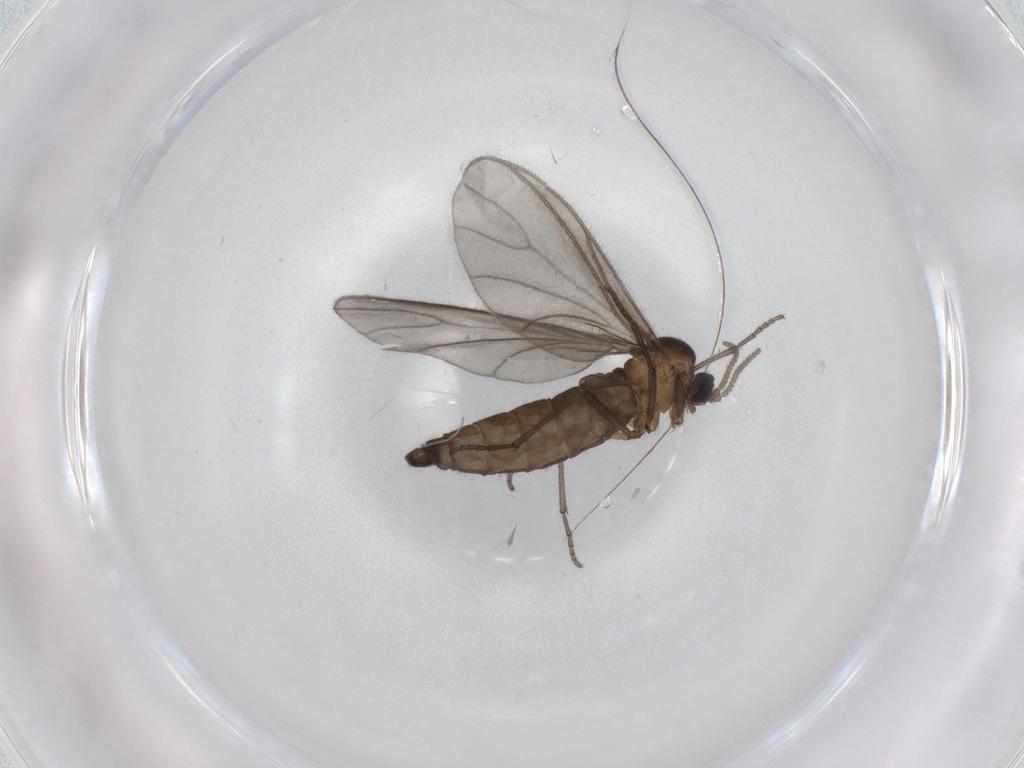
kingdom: Animalia
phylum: Arthropoda
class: Insecta
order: Diptera
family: Sciaridae
